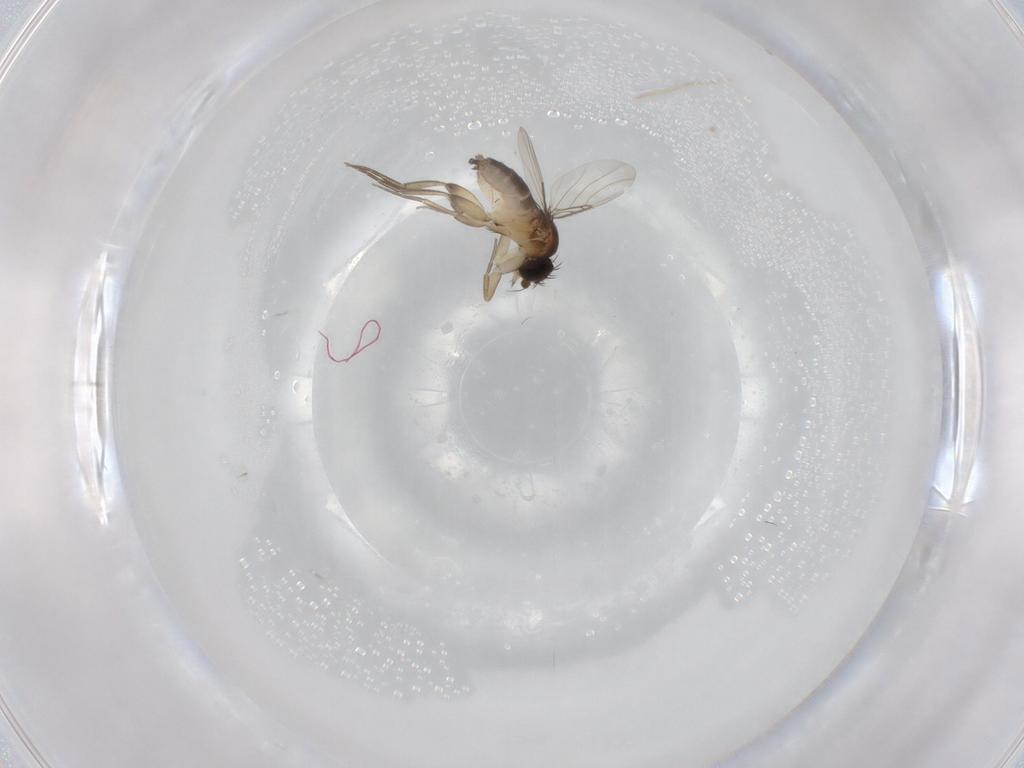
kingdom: Animalia
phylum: Arthropoda
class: Insecta
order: Diptera
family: Phoridae
